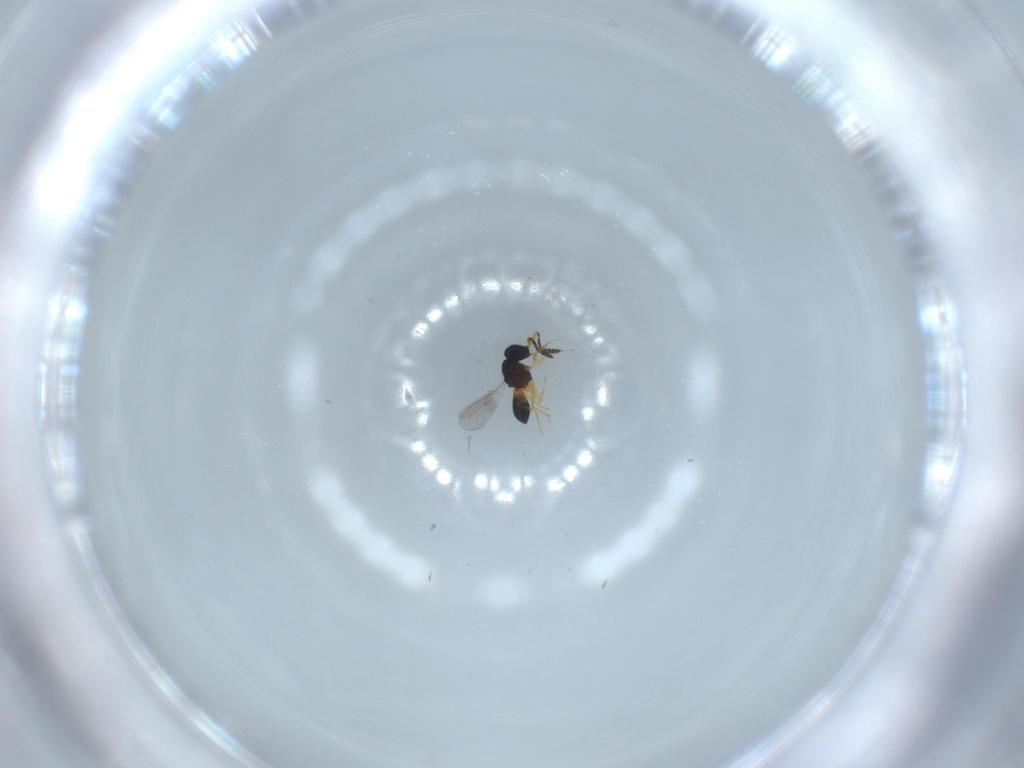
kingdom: Animalia
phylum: Arthropoda
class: Insecta
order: Hymenoptera
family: Scelionidae
